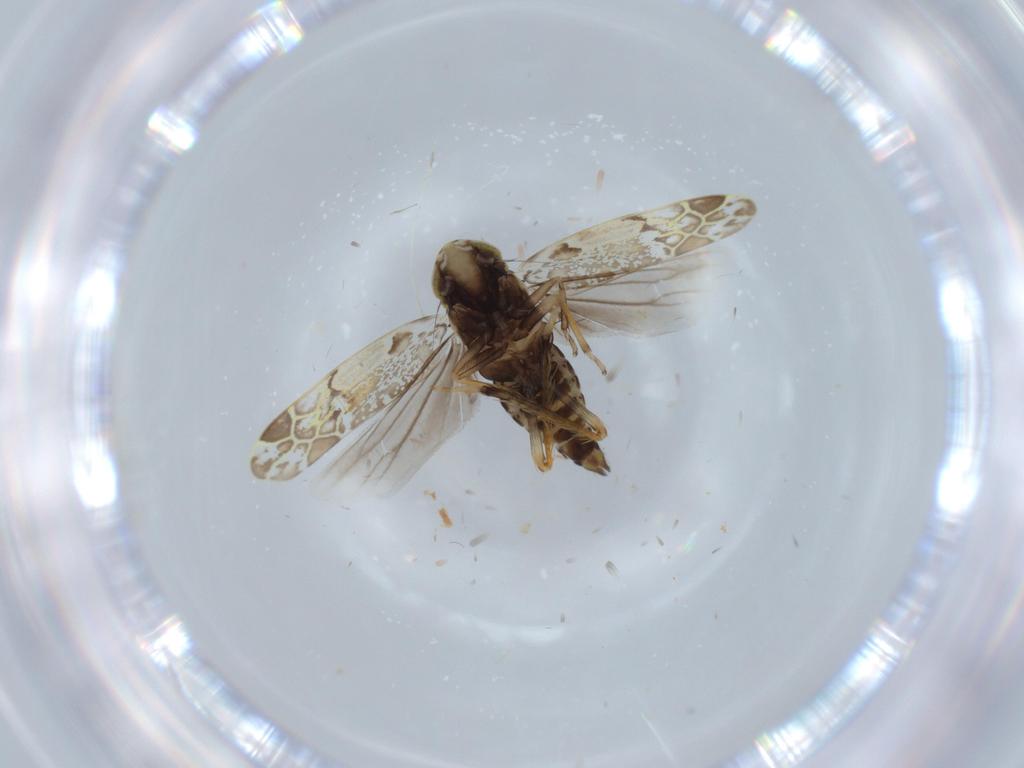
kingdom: Animalia
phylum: Arthropoda
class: Insecta
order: Hemiptera
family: Cicadellidae
